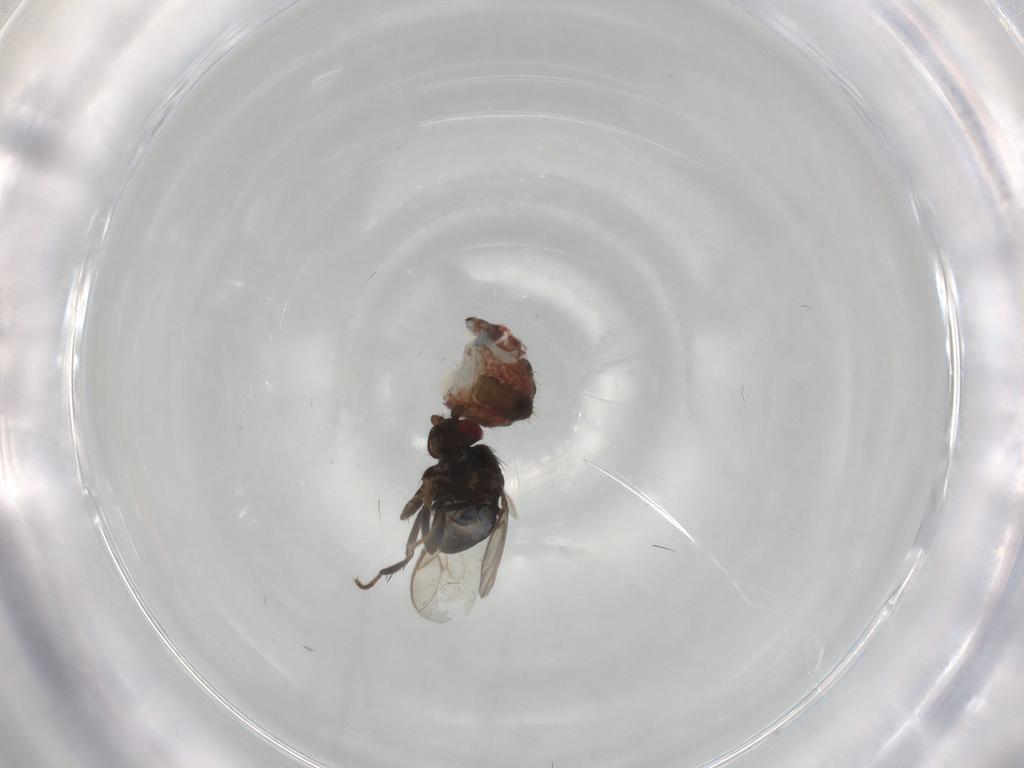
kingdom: Animalia
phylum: Arthropoda
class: Insecta
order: Diptera
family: Sphaeroceridae
